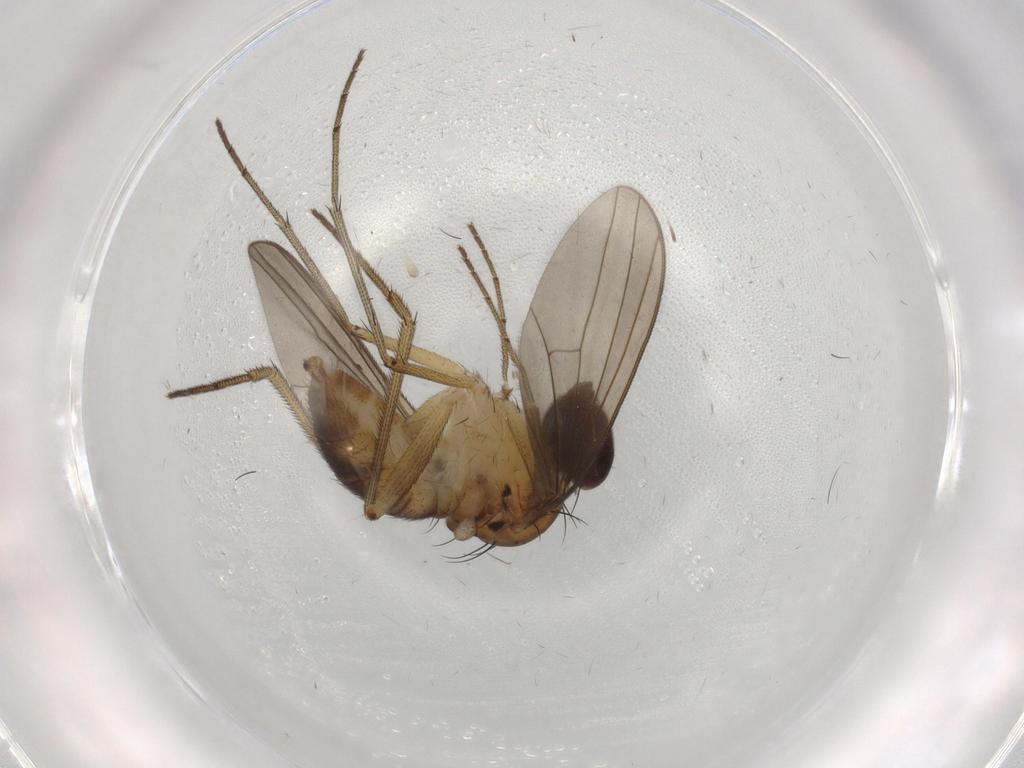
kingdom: Animalia
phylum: Arthropoda
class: Insecta
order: Diptera
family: Dolichopodidae
